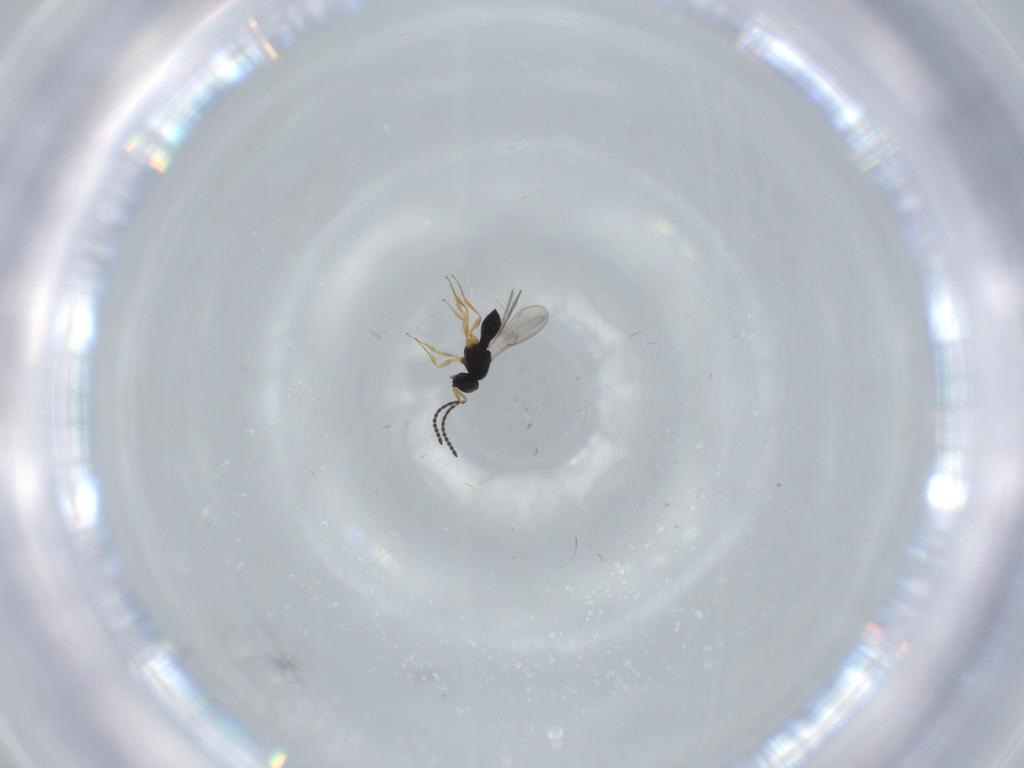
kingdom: Animalia
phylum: Arthropoda
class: Insecta
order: Hymenoptera
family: Scelionidae
